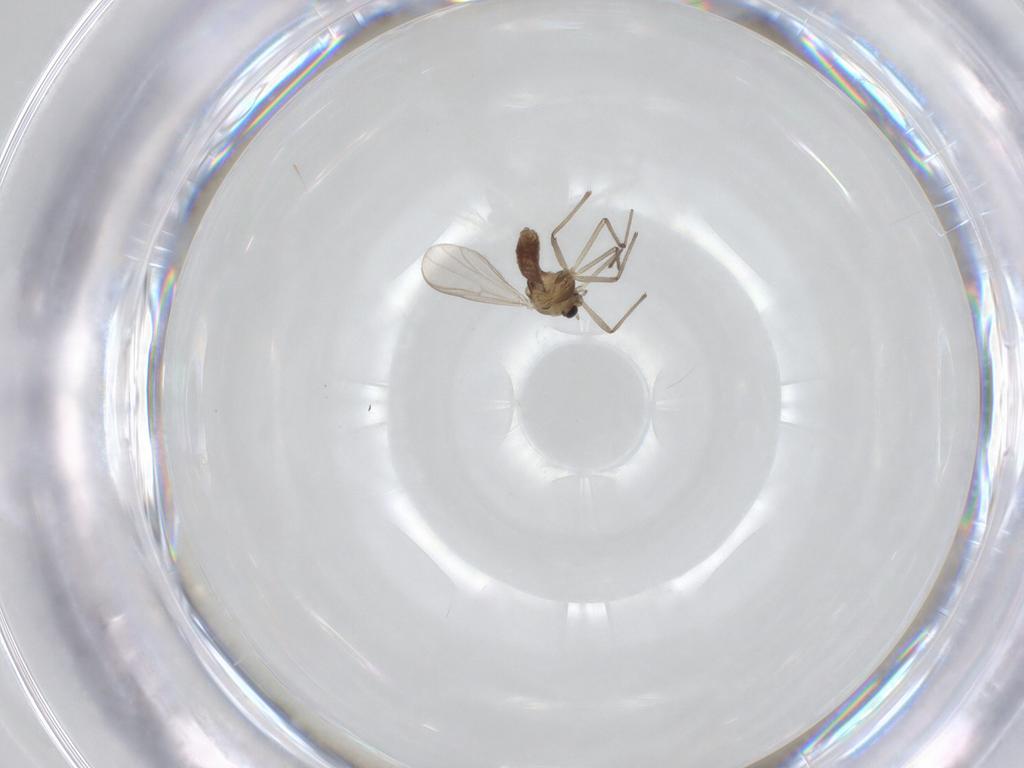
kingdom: Animalia
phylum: Arthropoda
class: Insecta
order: Diptera
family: Chironomidae
